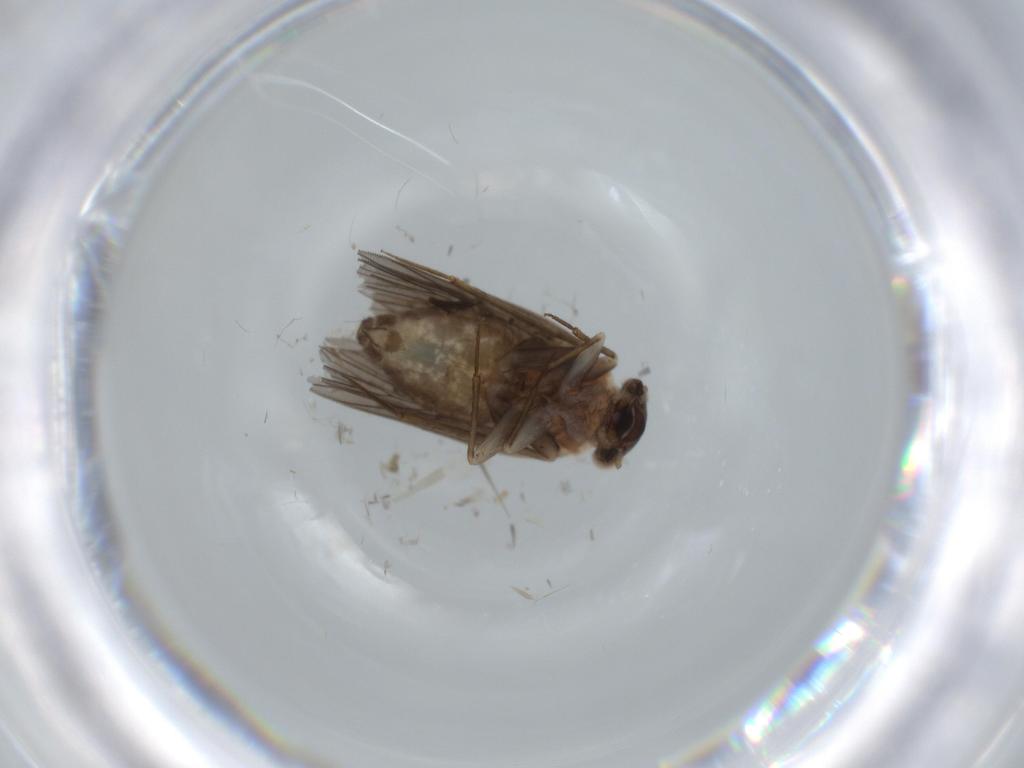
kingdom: Animalia
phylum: Arthropoda
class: Insecta
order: Psocodea
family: Lepidopsocidae
